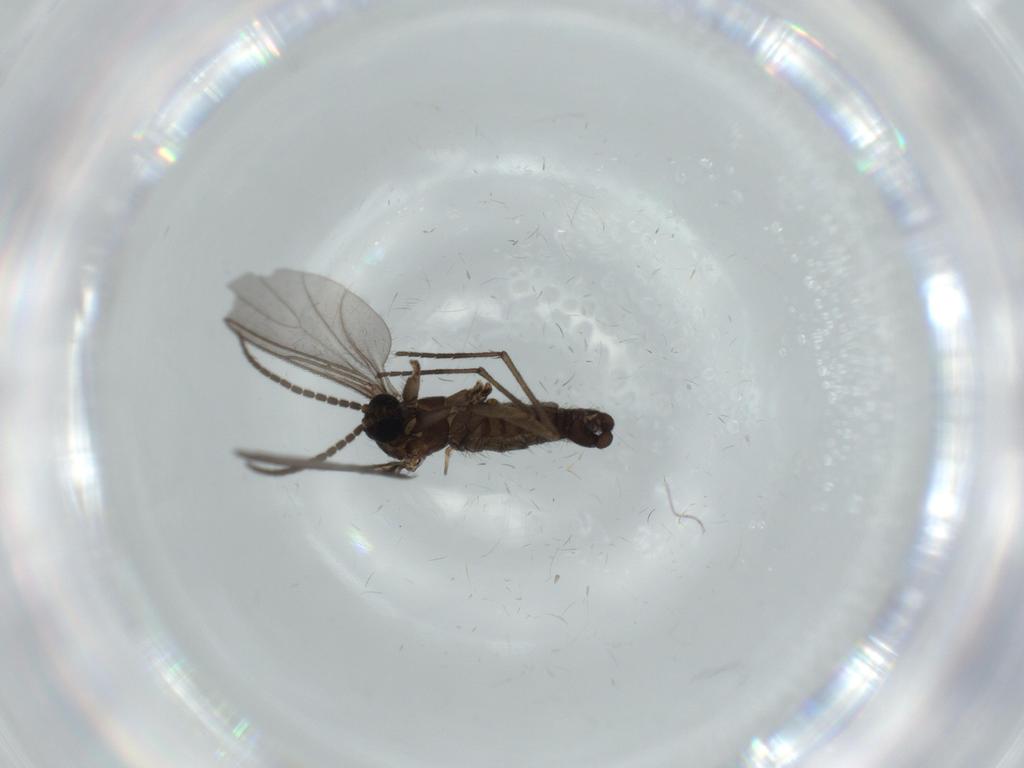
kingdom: Animalia
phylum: Arthropoda
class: Insecta
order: Diptera
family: Sciaridae
